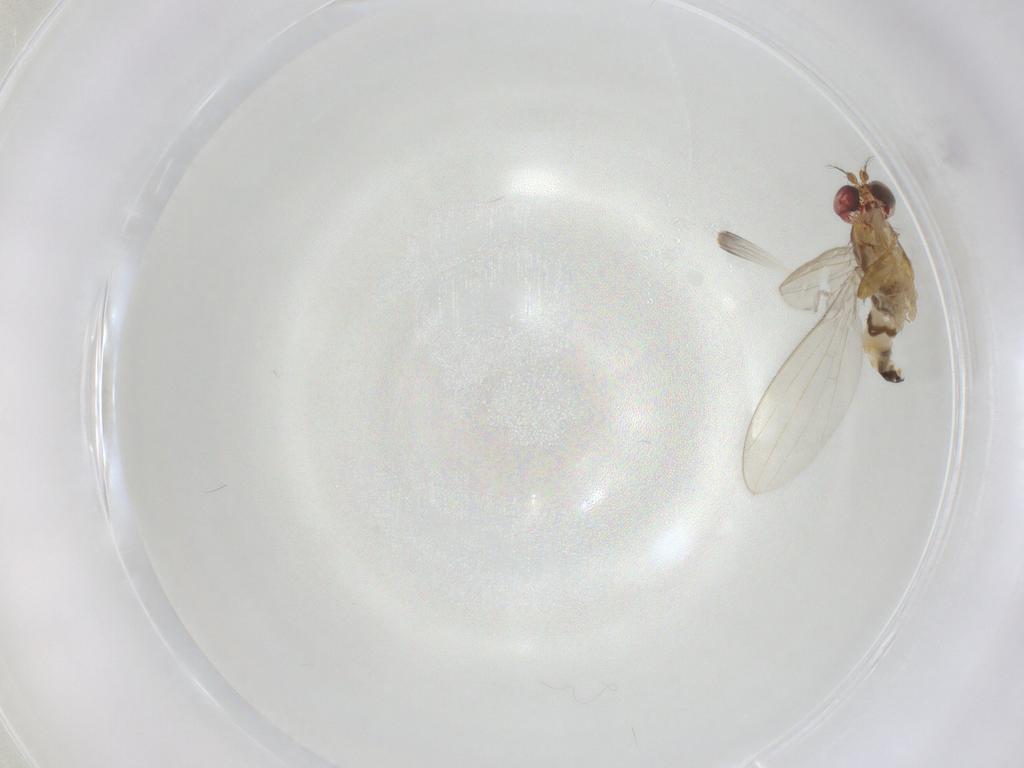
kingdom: Animalia
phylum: Arthropoda
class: Insecta
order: Diptera
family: Periscelididae
